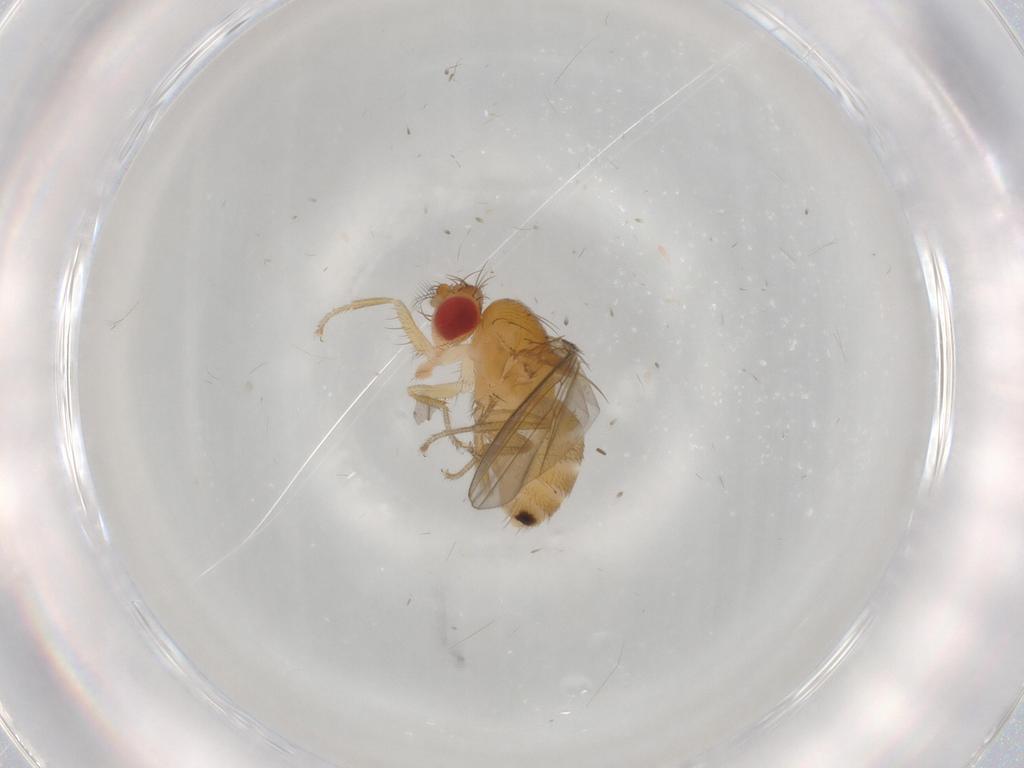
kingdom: Animalia
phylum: Arthropoda
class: Insecta
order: Diptera
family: Drosophilidae
